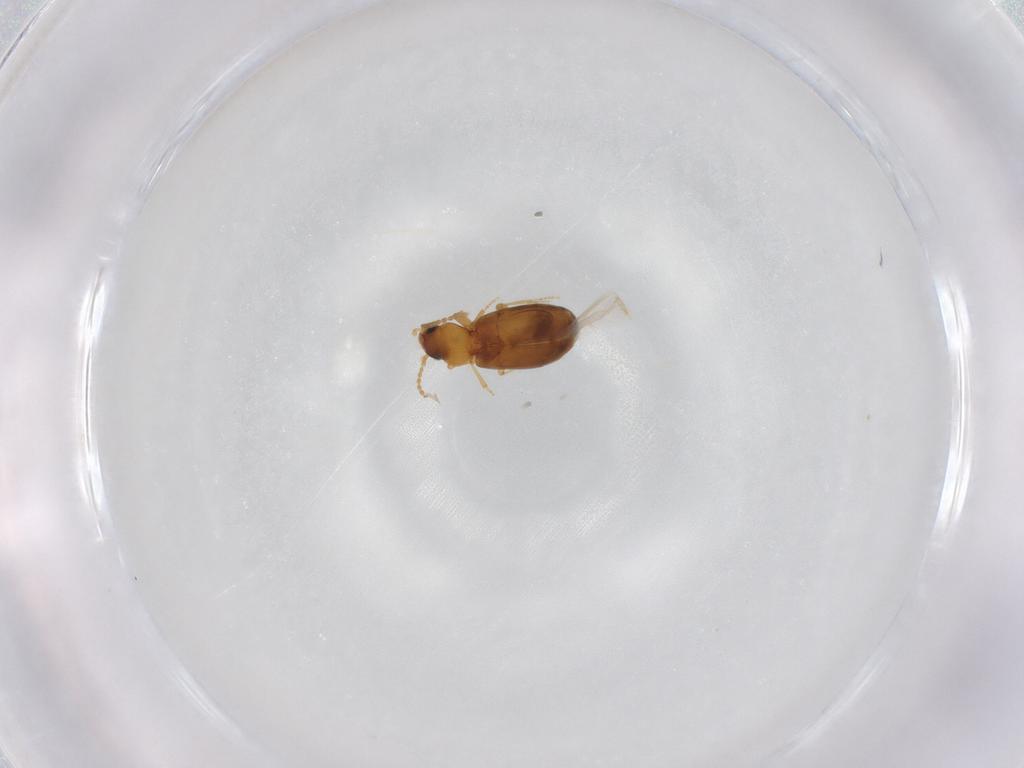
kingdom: Animalia
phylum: Arthropoda
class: Insecta
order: Coleoptera
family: Carabidae
